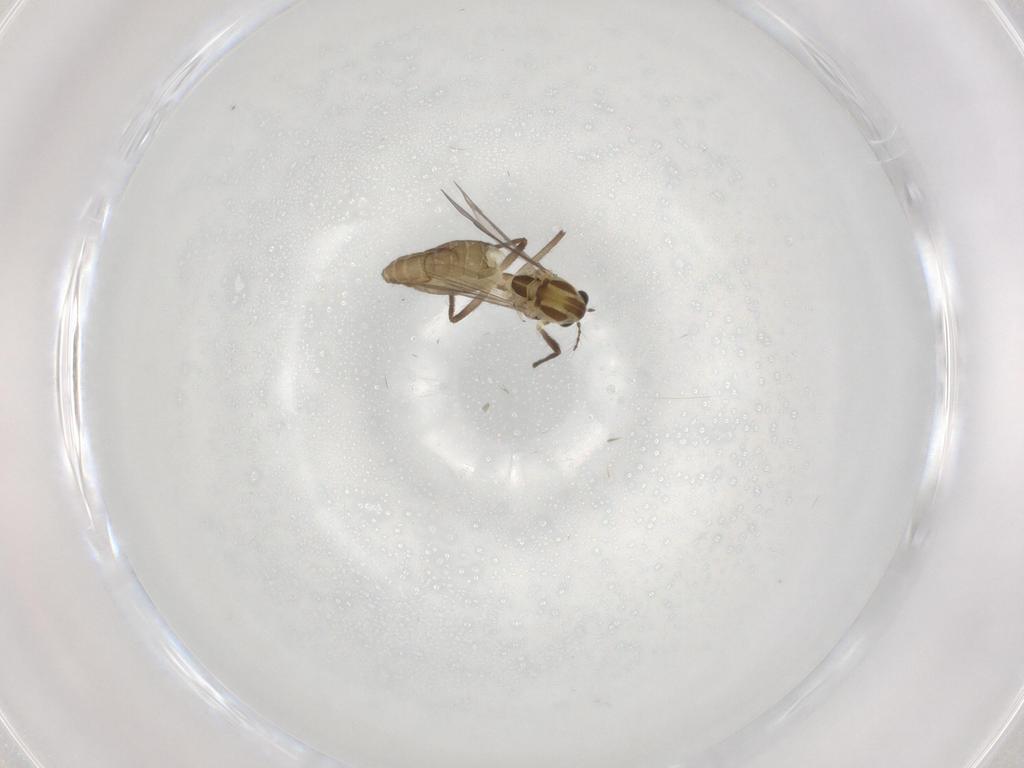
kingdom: Animalia
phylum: Arthropoda
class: Insecta
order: Diptera
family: Chironomidae
